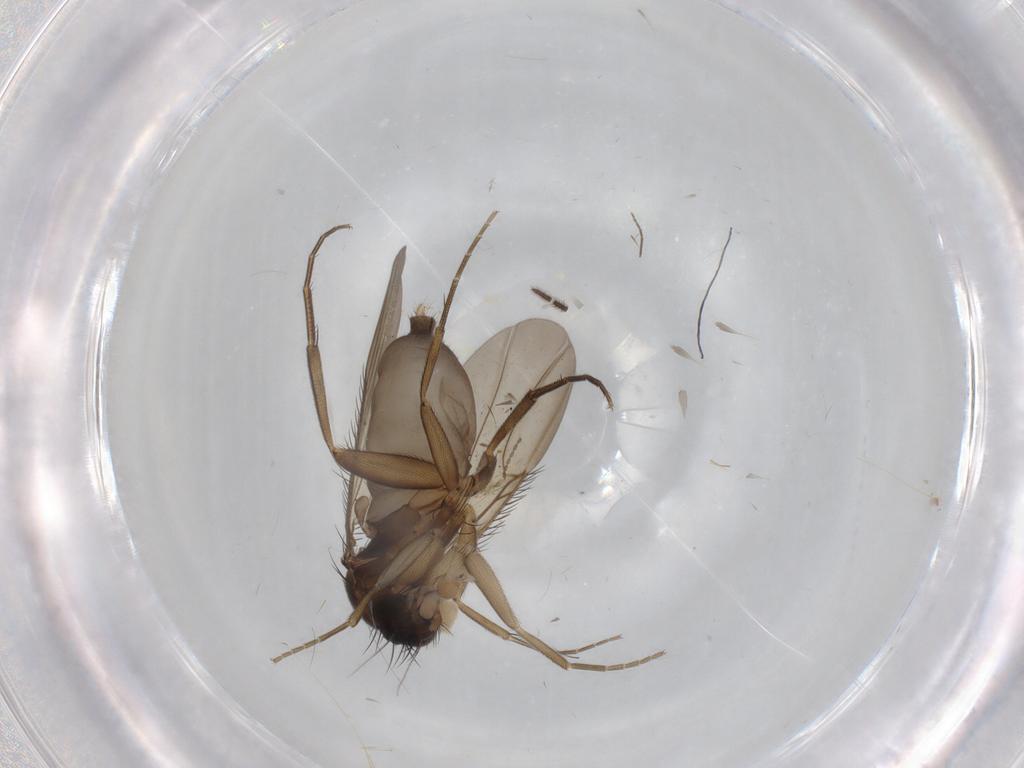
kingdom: Animalia
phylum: Arthropoda
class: Insecta
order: Diptera
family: Phoridae
